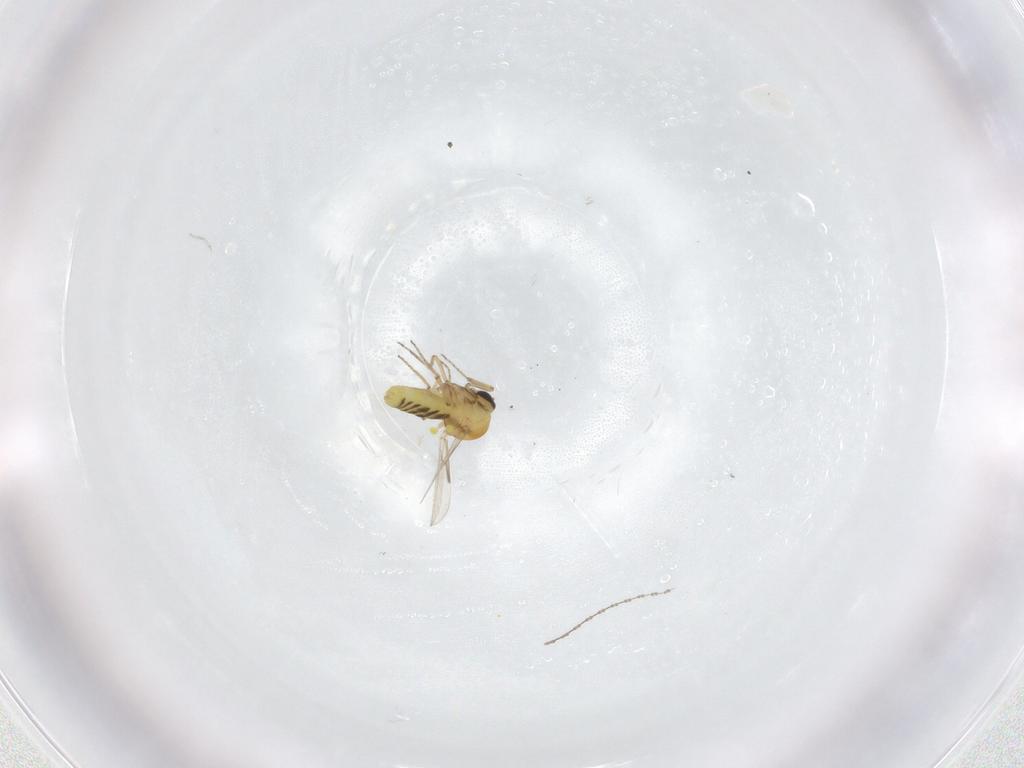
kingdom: Animalia
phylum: Arthropoda
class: Insecta
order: Diptera
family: Ceratopogonidae
